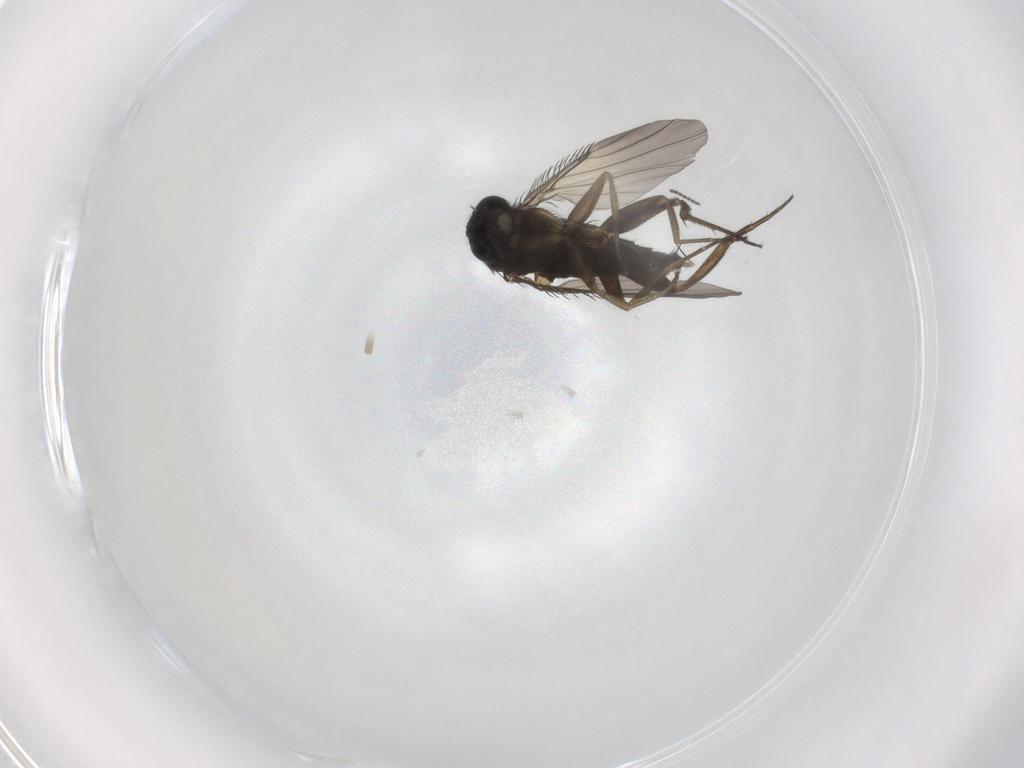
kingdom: Animalia
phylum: Arthropoda
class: Insecta
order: Diptera
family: Phoridae
